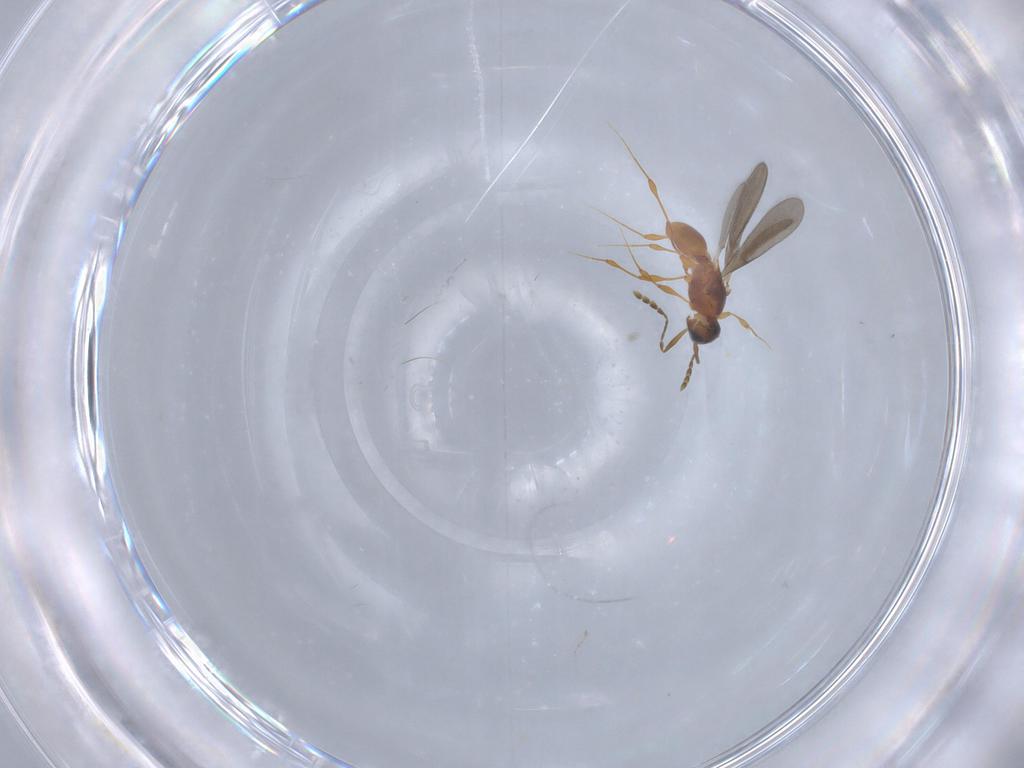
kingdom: Animalia
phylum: Arthropoda
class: Insecta
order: Hymenoptera
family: Platygastridae
